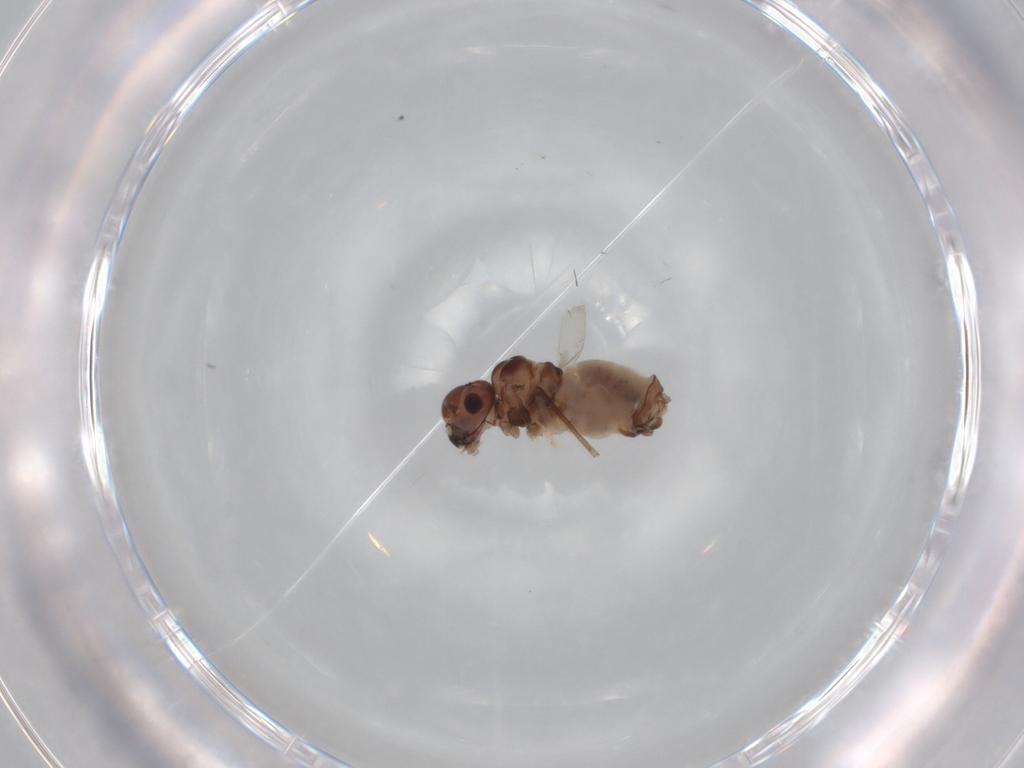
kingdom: Animalia
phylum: Arthropoda
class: Insecta
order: Psocodea
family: Peripsocidae
